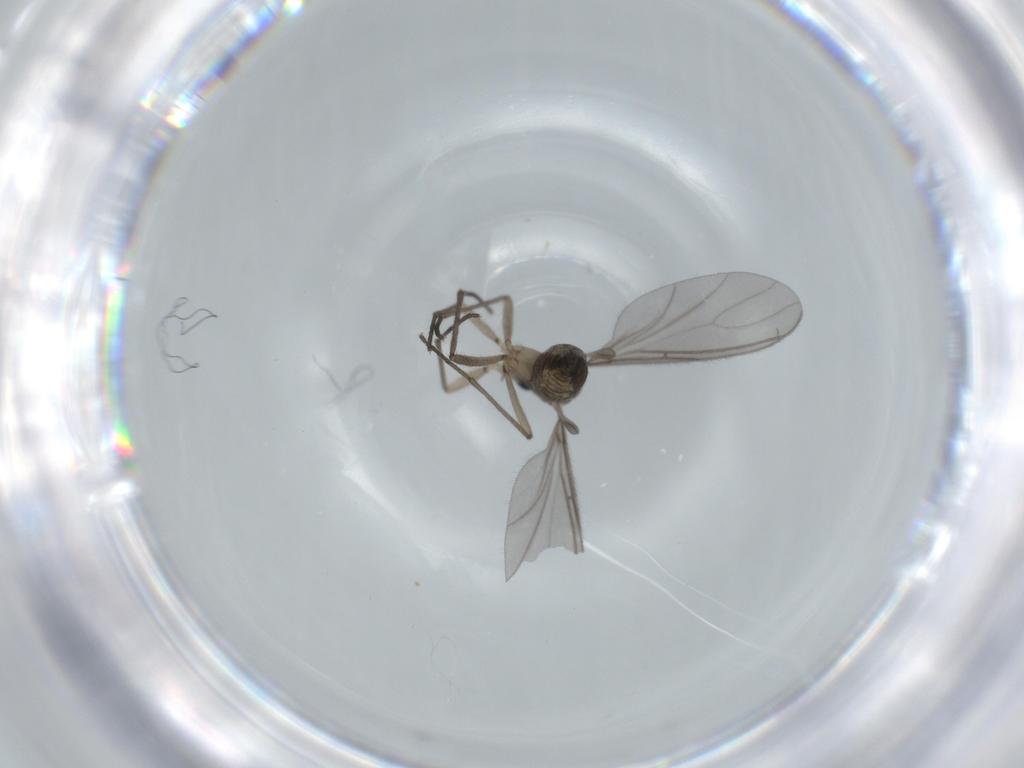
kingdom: Animalia
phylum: Arthropoda
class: Insecta
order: Diptera
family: Sciaridae
